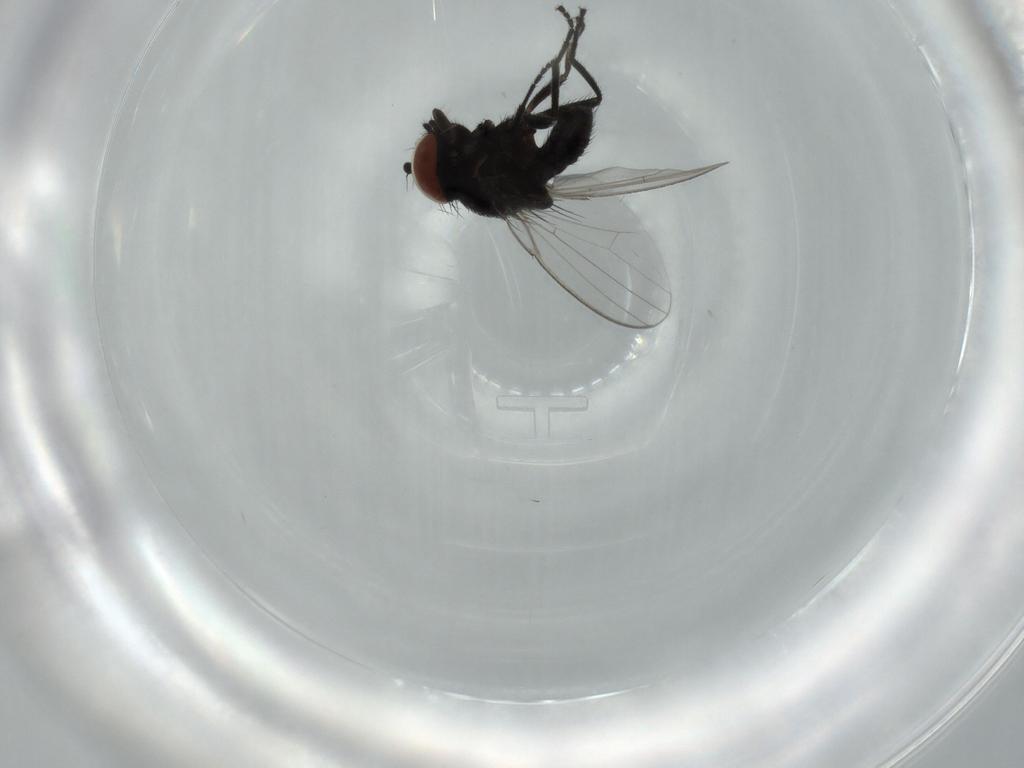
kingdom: Animalia
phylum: Arthropoda
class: Insecta
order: Diptera
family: Milichiidae
